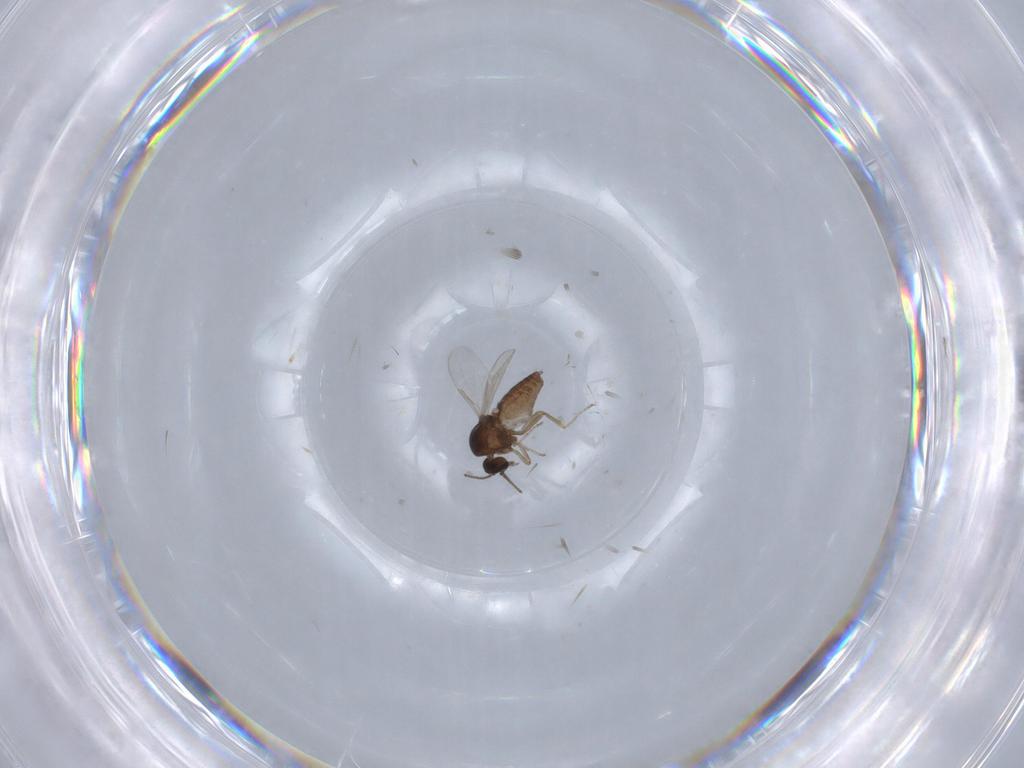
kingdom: Animalia
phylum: Arthropoda
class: Insecta
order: Diptera
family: Ceratopogonidae
